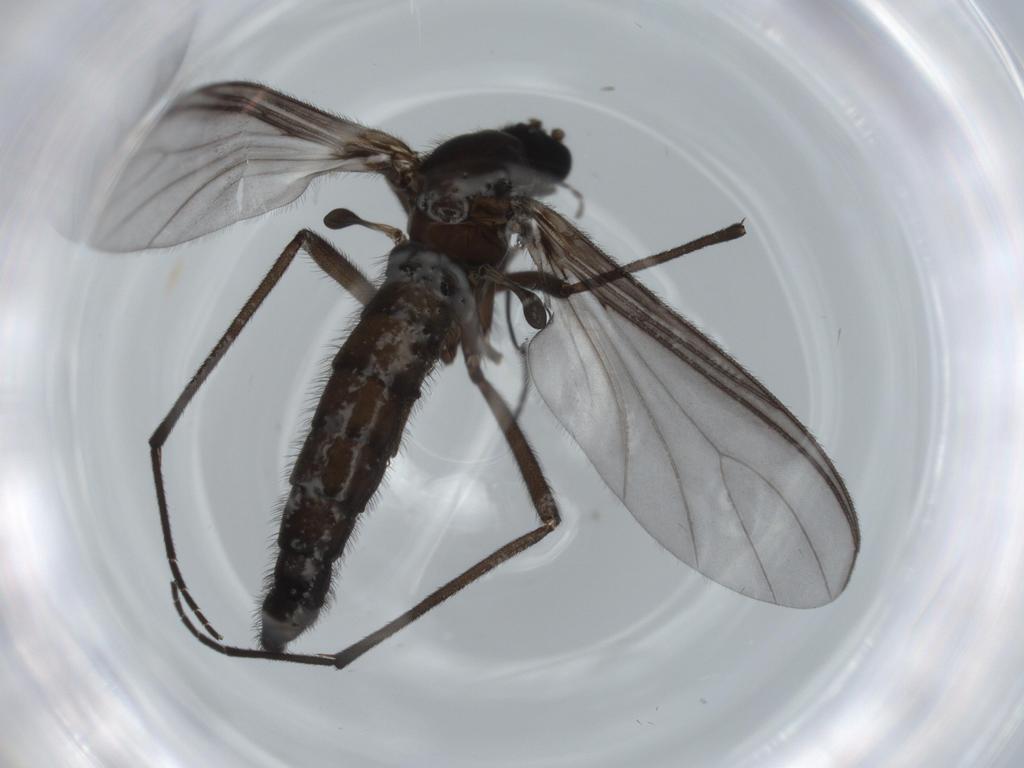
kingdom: Animalia
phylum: Arthropoda
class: Insecta
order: Diptera
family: Sciaridae
